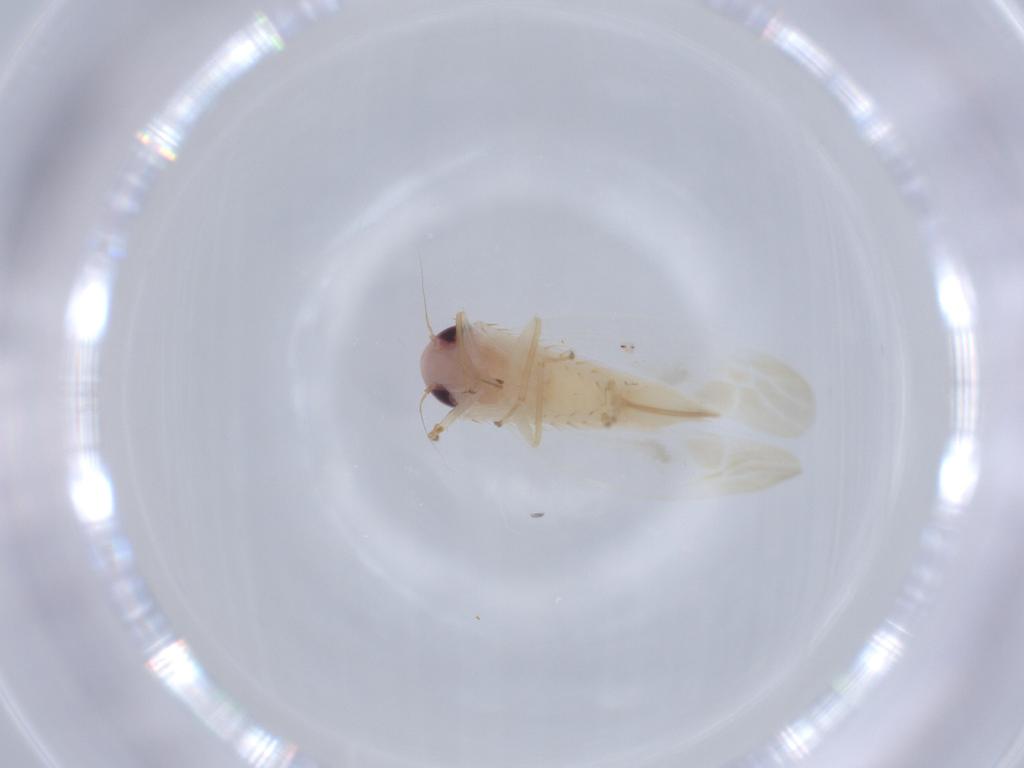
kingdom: Animalia
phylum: Arthropoda
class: Insecta
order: Hemiptera
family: Cicadellidae
